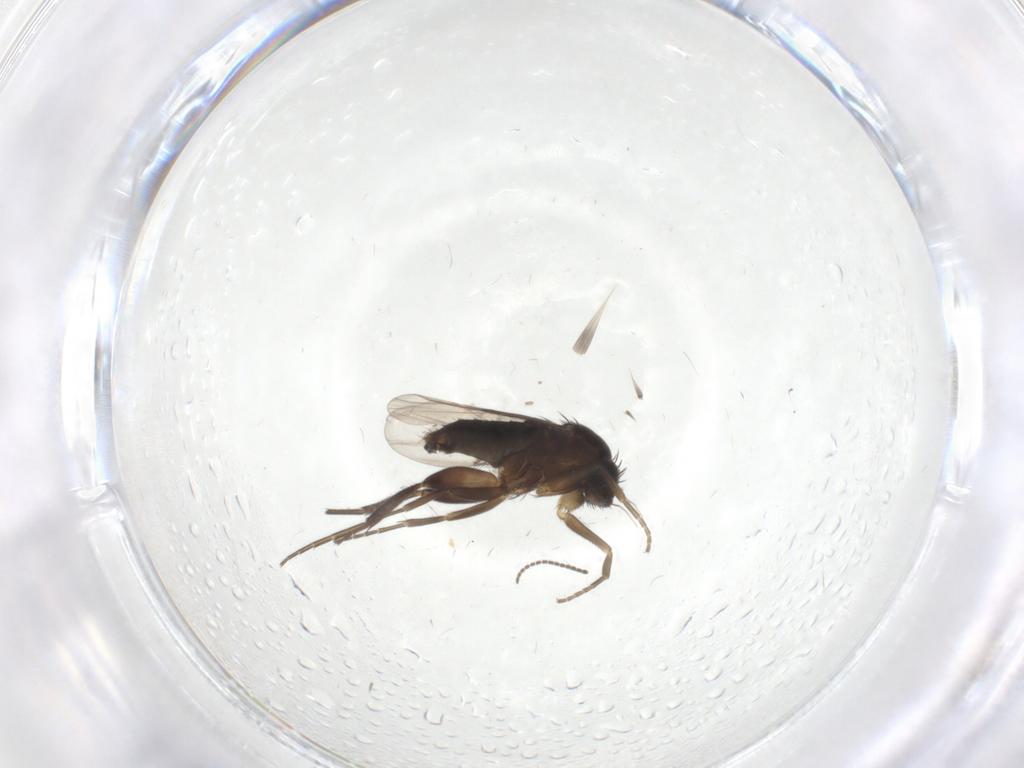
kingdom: Animalia
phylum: Arthropoda
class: Insecta
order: Diptera
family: Phoridae
